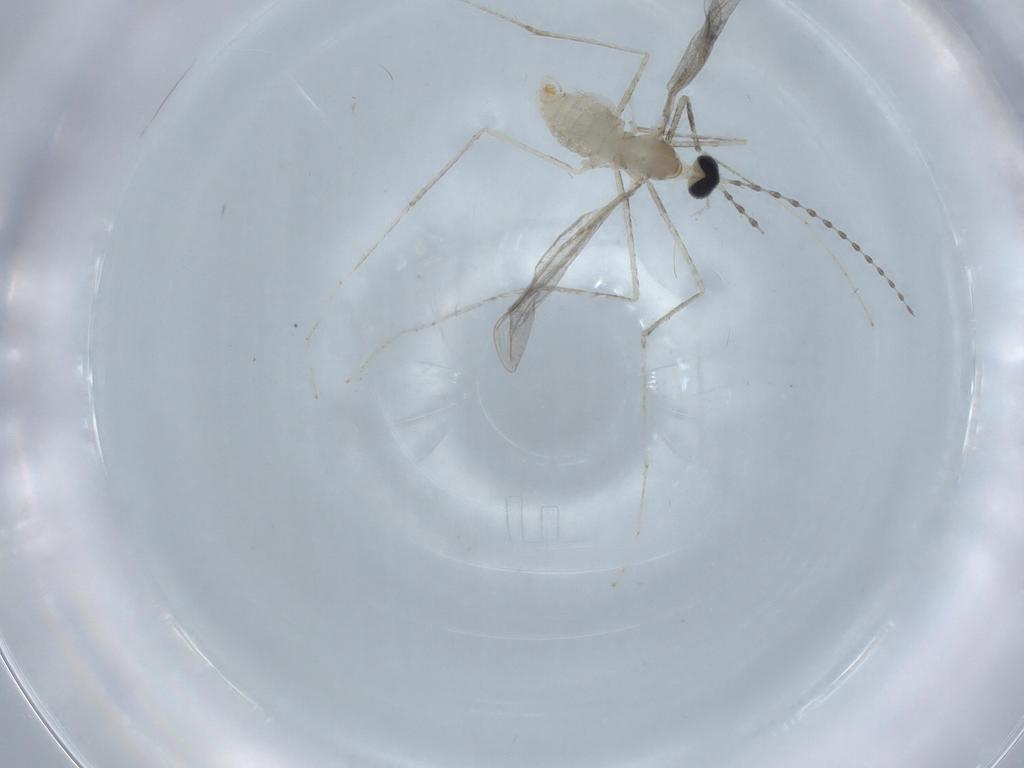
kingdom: Animalia
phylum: Arthropoda
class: Insecta
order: Diptera
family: Cecidomyiidae
